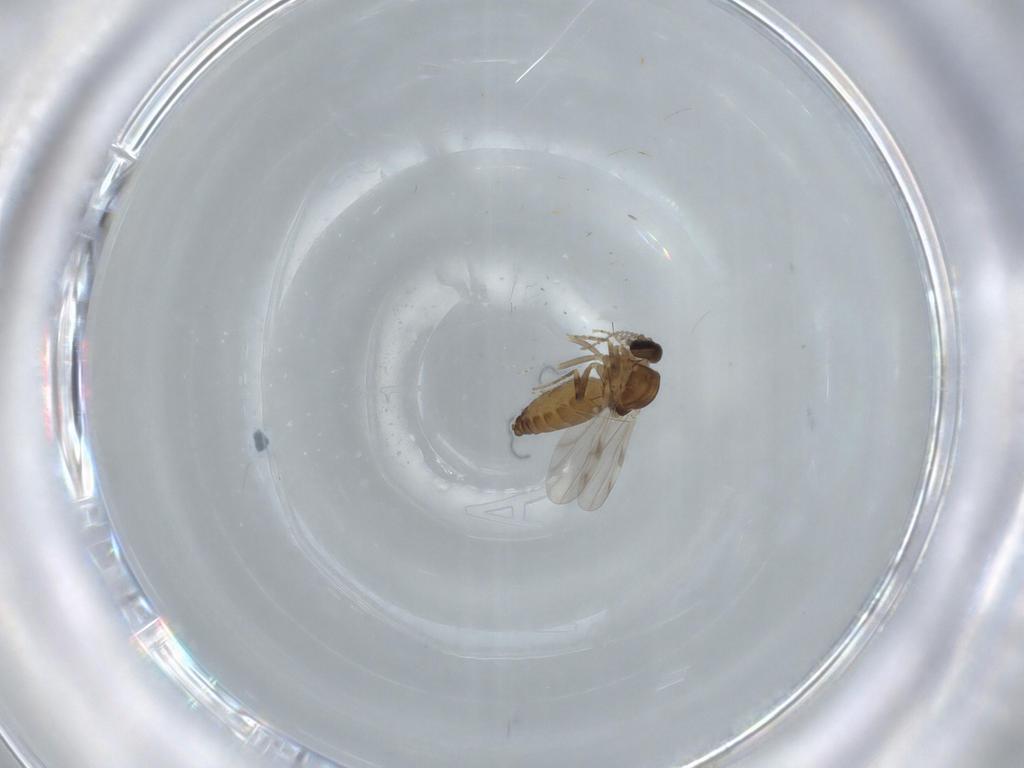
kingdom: Animalia
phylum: Arthropoda
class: Insecta
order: Diptera
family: Ceratopogonidae
